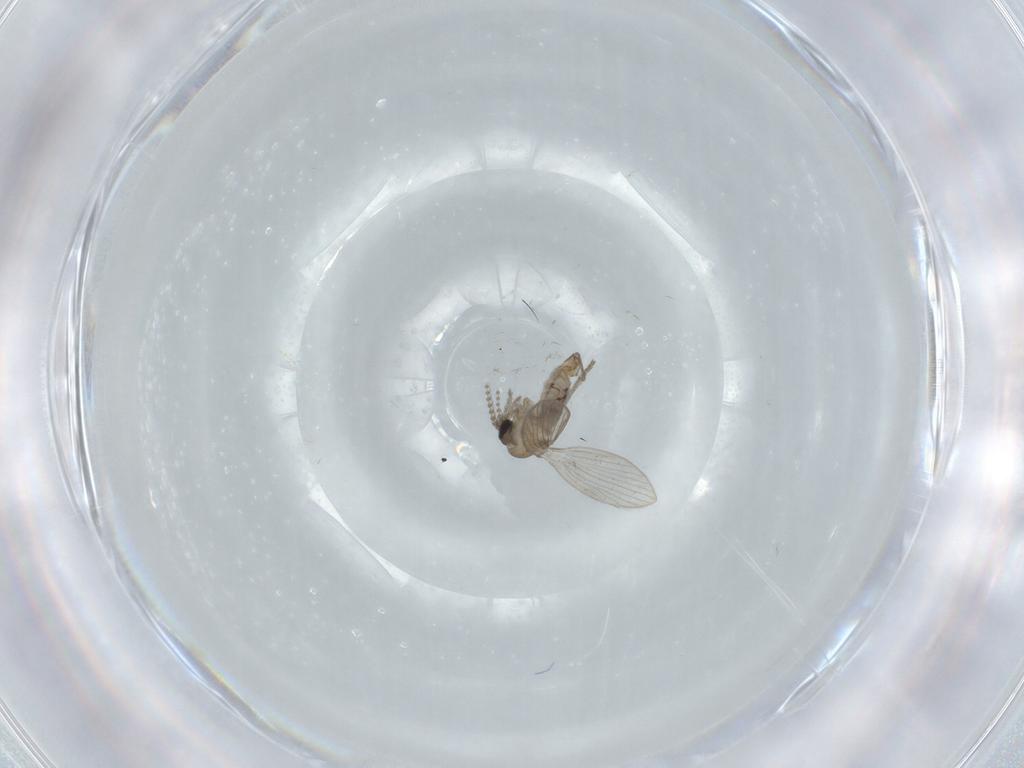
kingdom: Animalia
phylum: Arthropoda
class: Insecta
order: Diptera
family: Psychodidae
